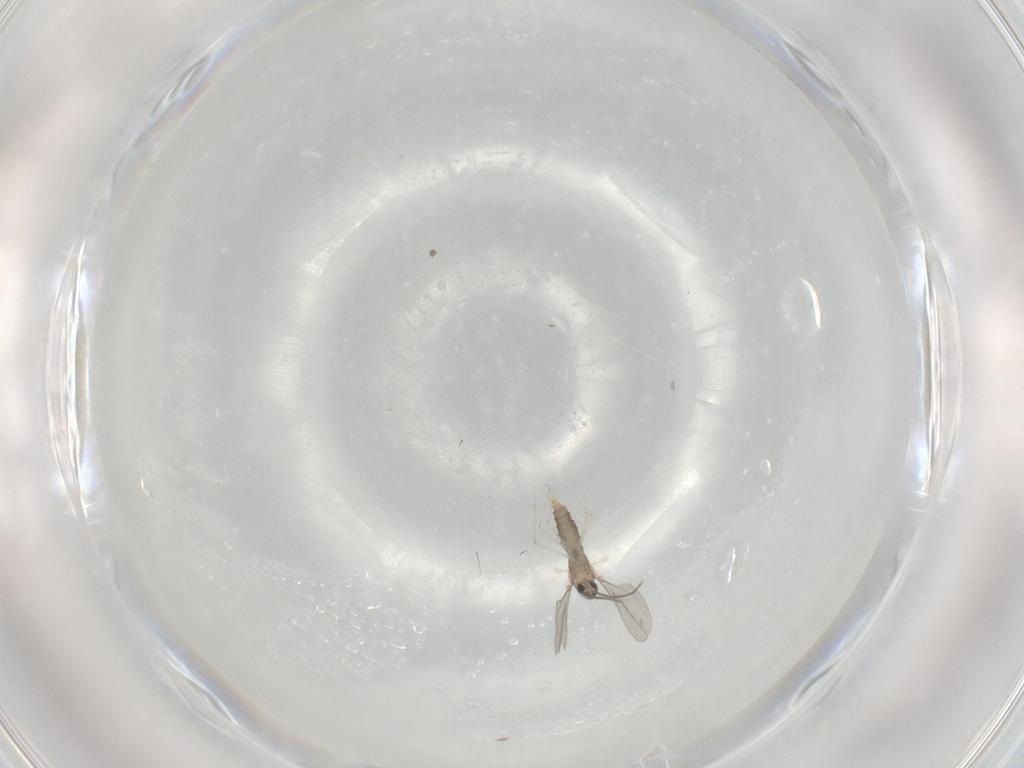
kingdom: Animalia
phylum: Arthropoda
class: Insecta
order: Diptera
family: Cecidomyiidae
